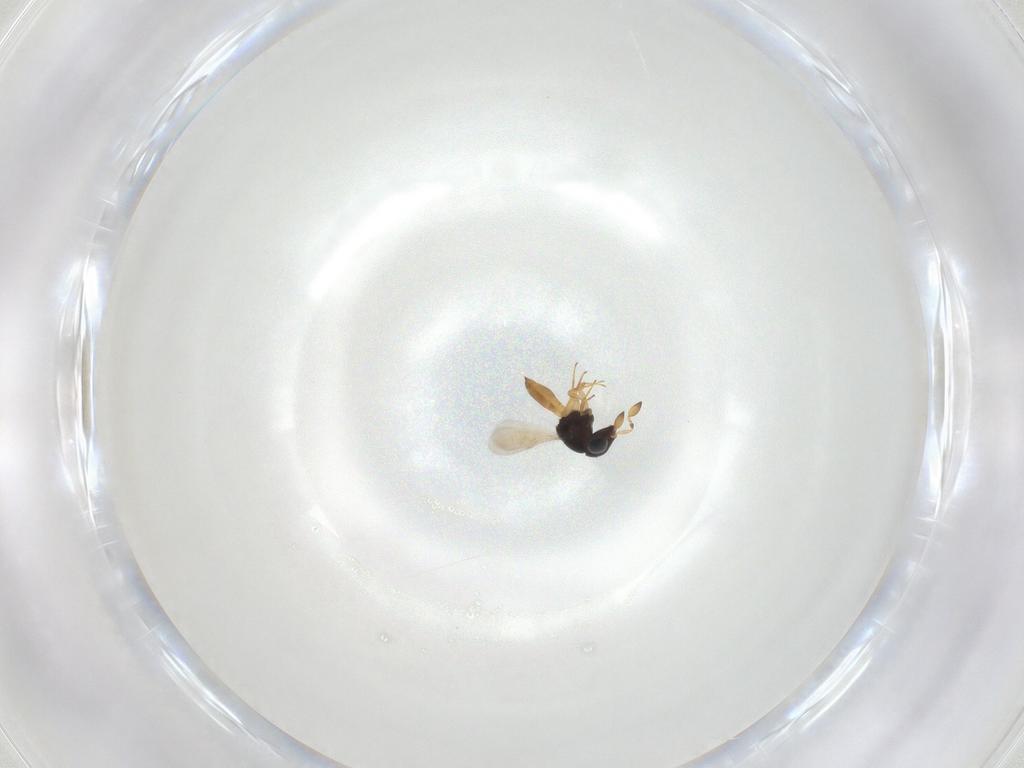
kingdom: Animalia
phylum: Arthropoda
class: Insecta
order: Hymenoptera
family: Scelionidae
